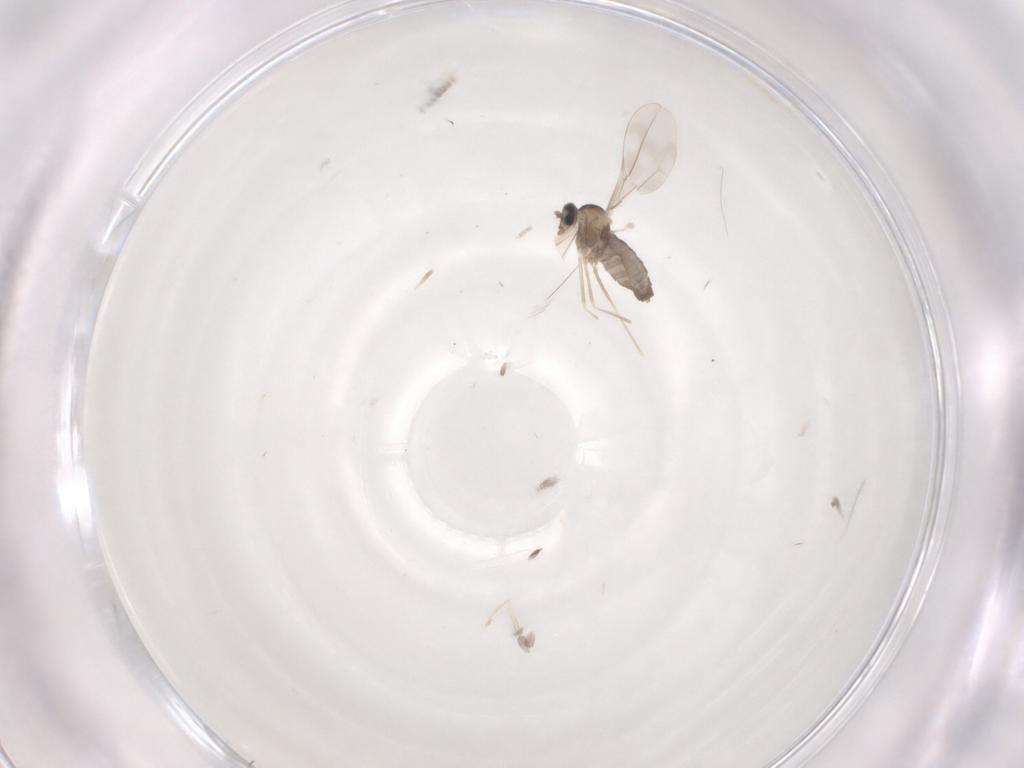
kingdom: Animalia
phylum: Arthropoda
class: Insecta
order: Diptera
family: Cecidomyiidae
